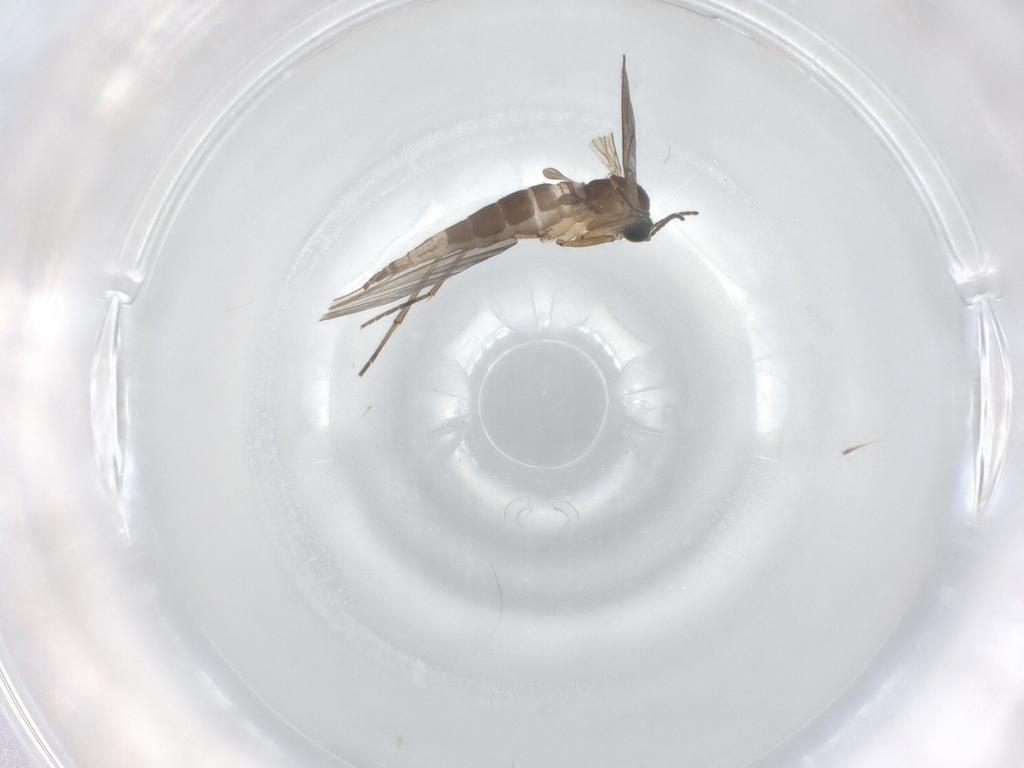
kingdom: Animalia
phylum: Arthropoda
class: Insecta
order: Diptera
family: Sciaridae
